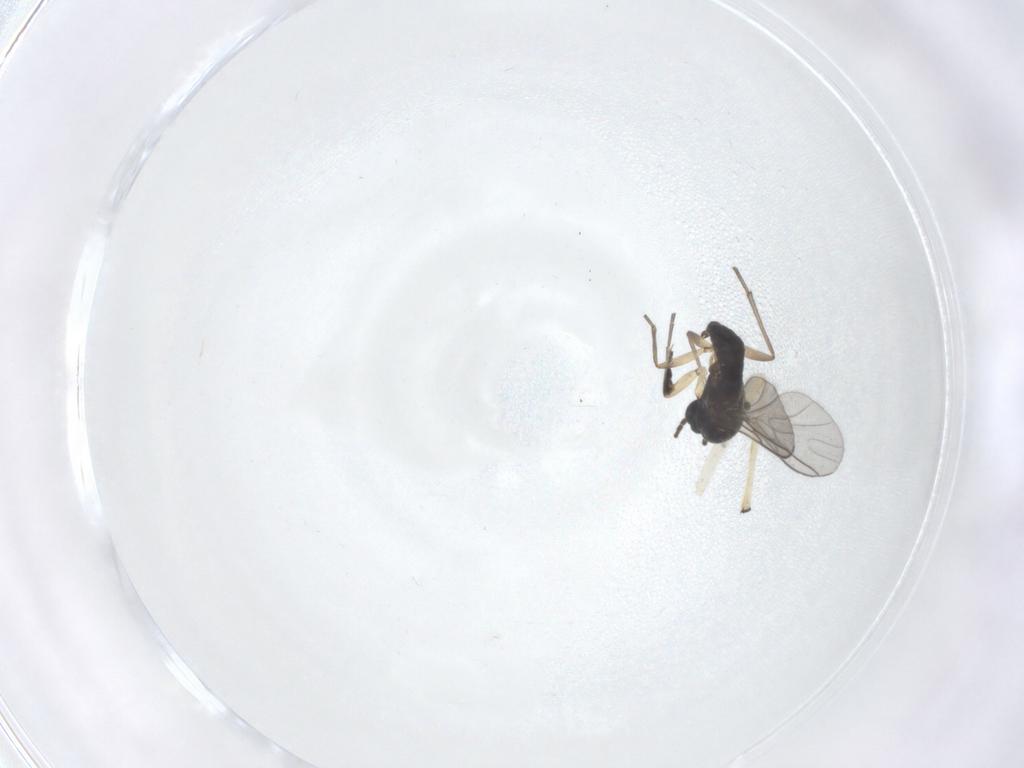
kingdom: Animalia
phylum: Arthropoda
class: Insecta
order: Diptera
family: Sciaridae
